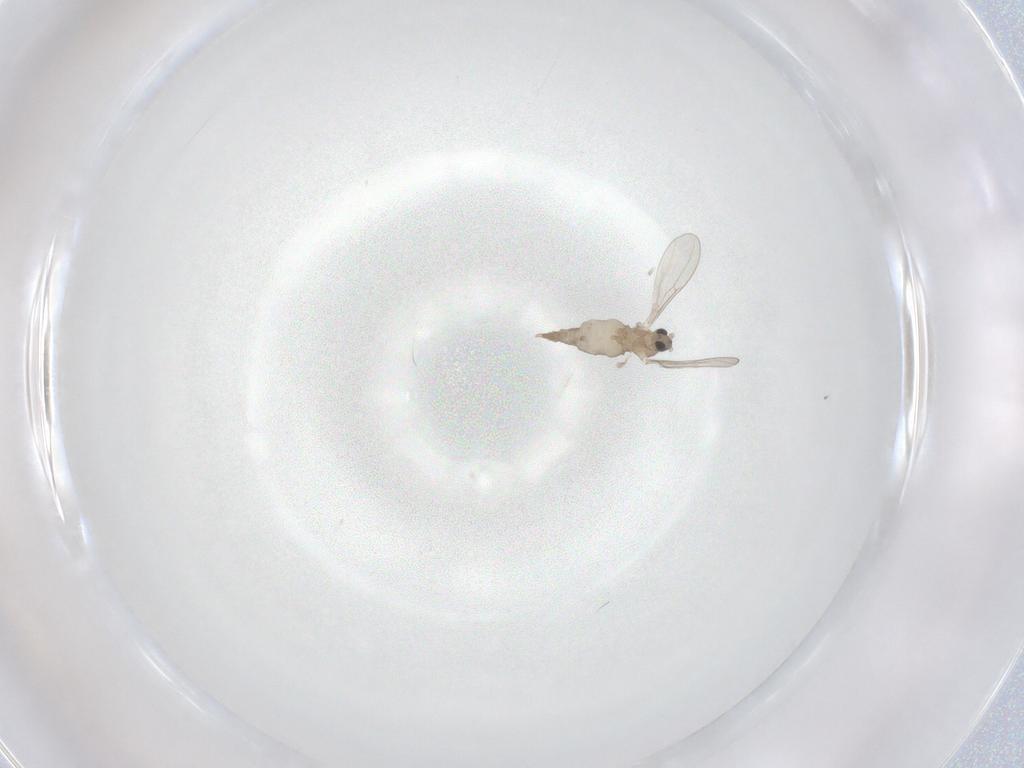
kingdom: Animalia
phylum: Arthropoda
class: Insecta
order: Diptera
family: Cecidomyiidae
